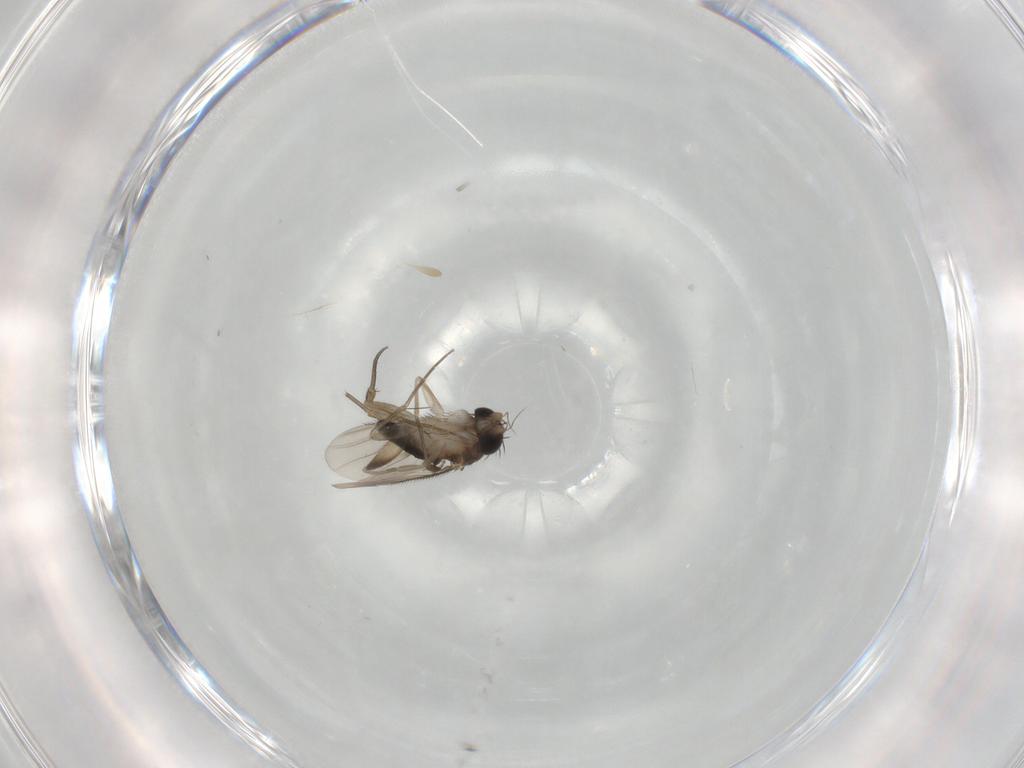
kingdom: Animalia
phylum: Arthropoda
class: Insecta
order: Diptera
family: Phoridae
